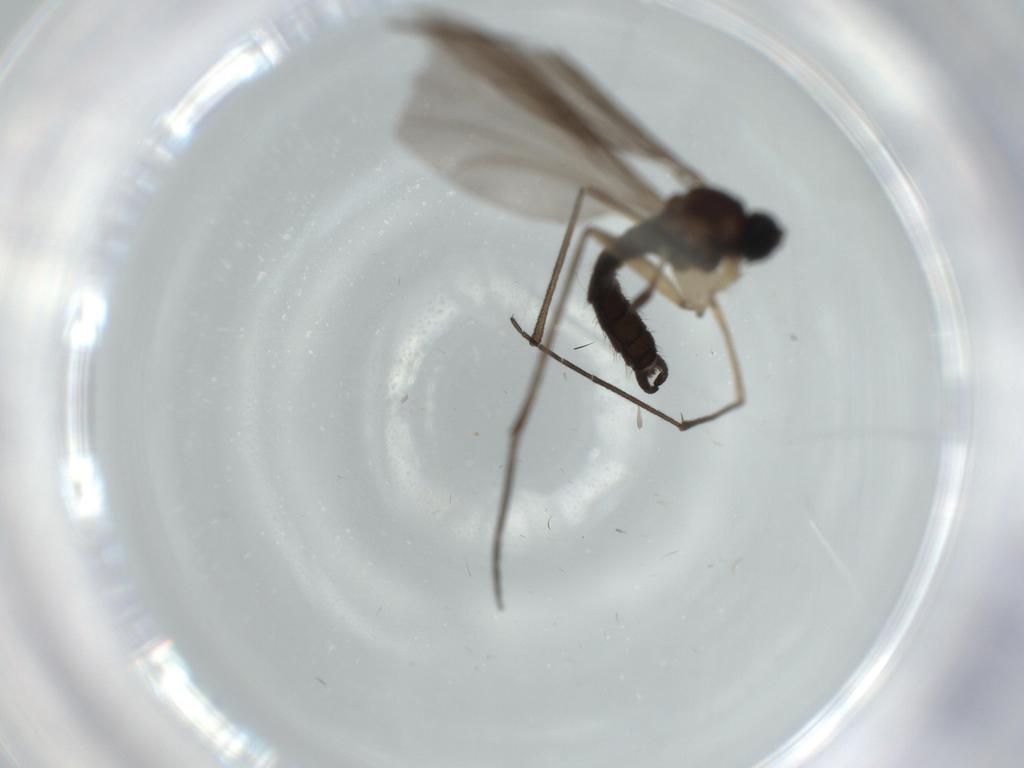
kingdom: Animalia
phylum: Arthropoda
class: Insecta
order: Diptera
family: Sciaridae
